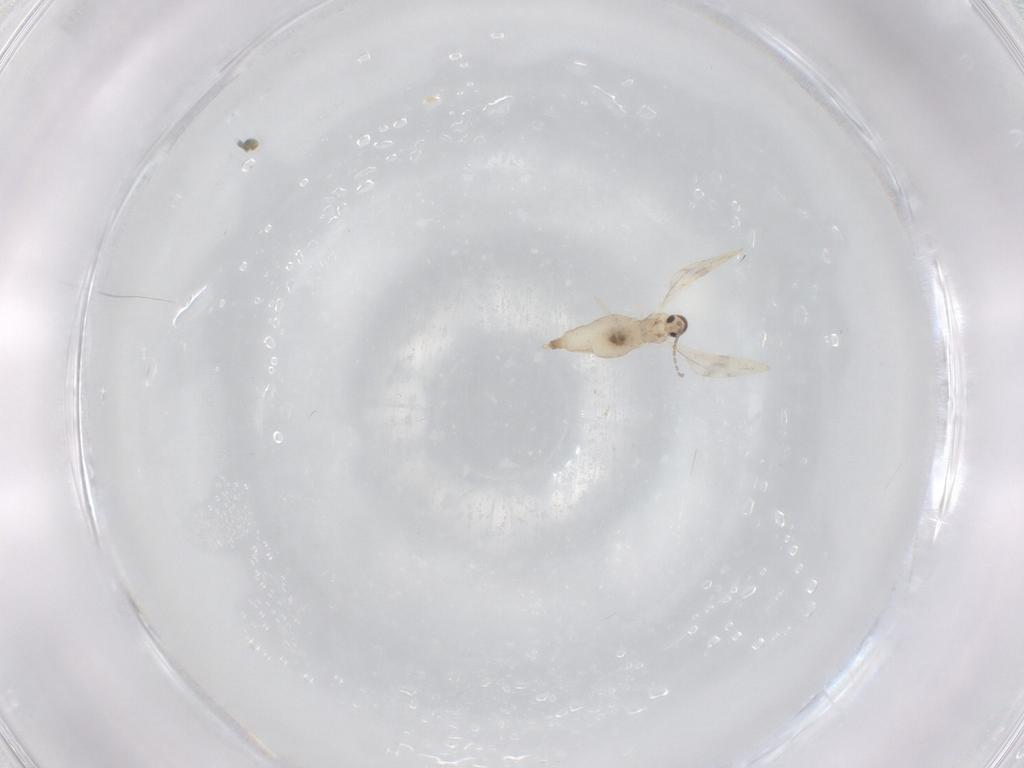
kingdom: Animalia
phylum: Arthropoda
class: Insecta
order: Diptera
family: Cecidomyiidae
